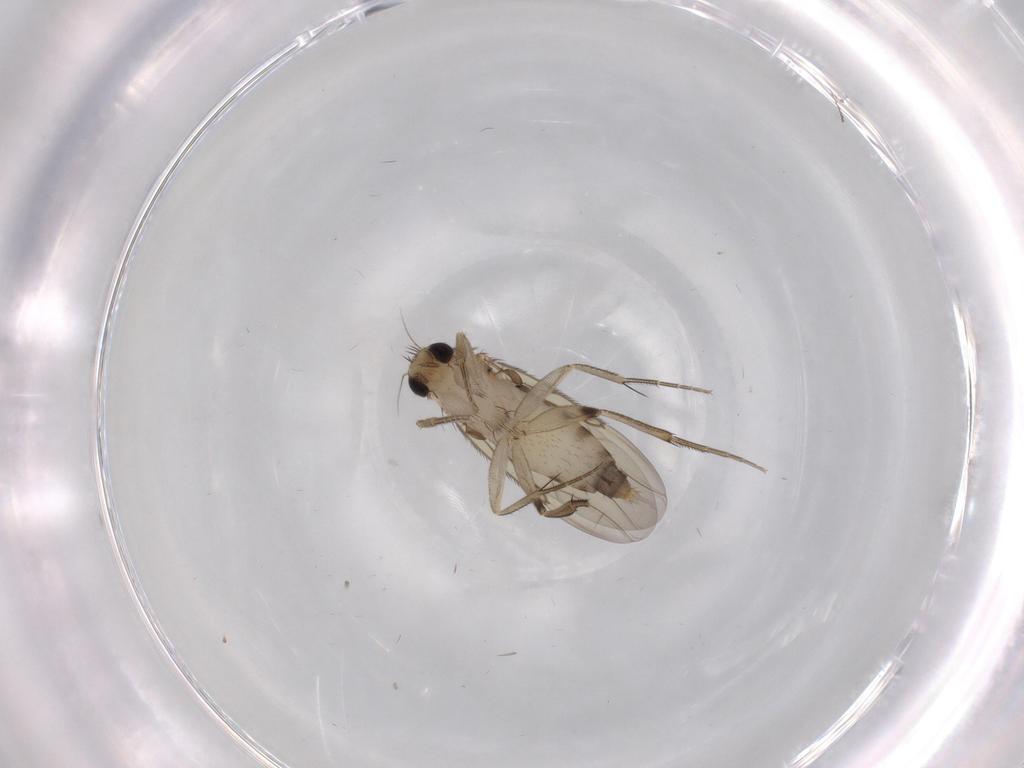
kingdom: Animalia
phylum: Arthropoda
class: Insecta
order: Diptera
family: Phoridae
